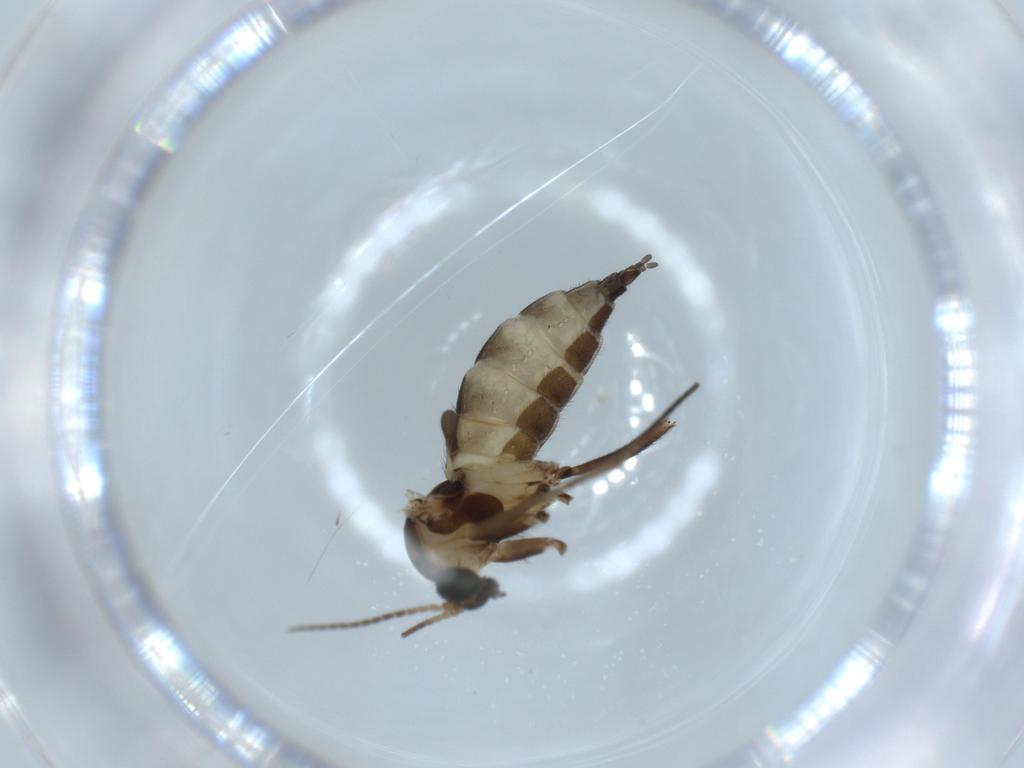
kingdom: Animalia
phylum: Arthropoda
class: Insecta
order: Diptera
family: Sciaridae
